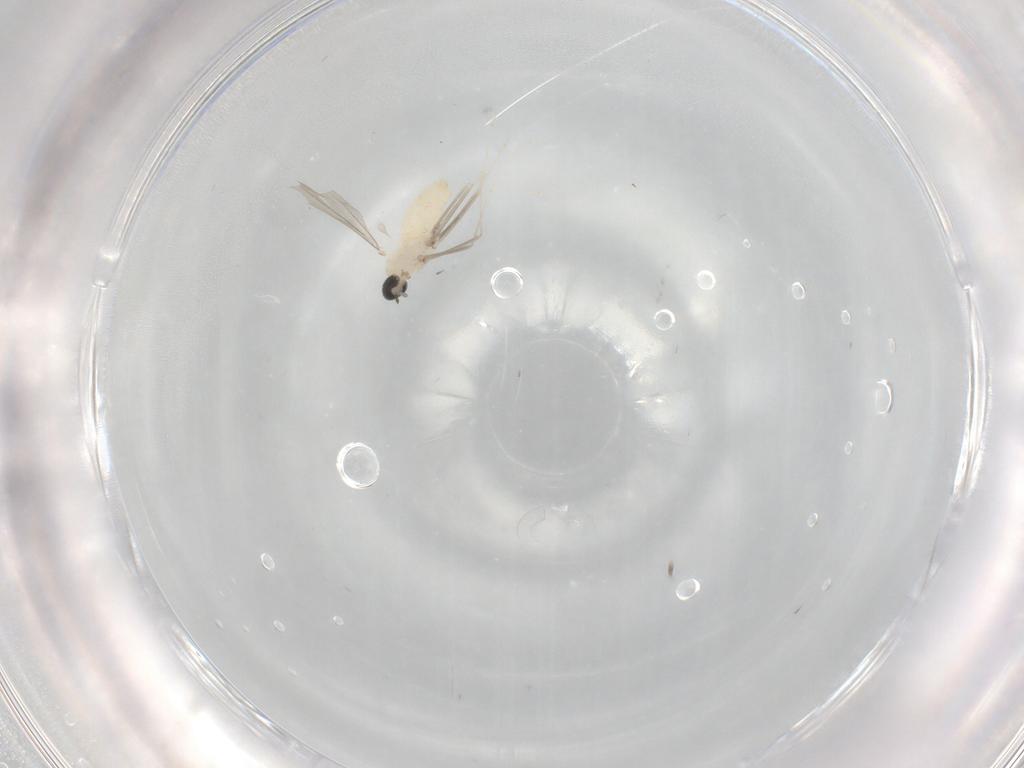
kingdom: Animalia
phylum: Arthropoda
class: Insecta
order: Diptera
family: Cecidomyiidae
